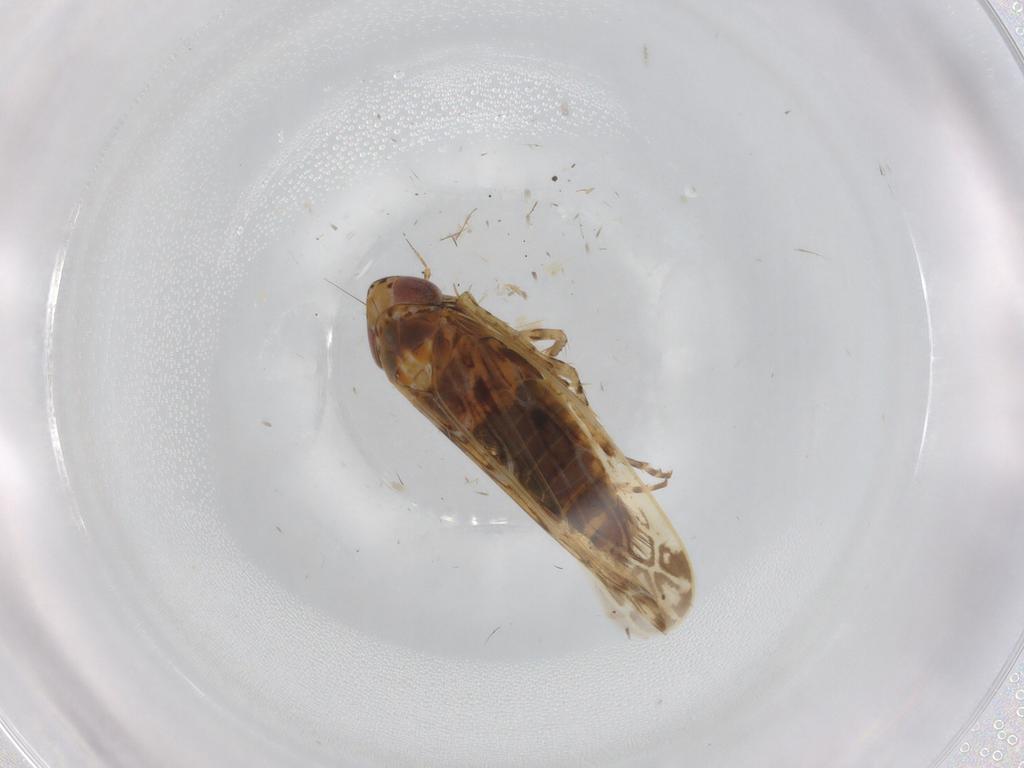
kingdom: Animalia
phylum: Arthropoda
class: Insecta
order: Hemiptera
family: Cicadellidae
